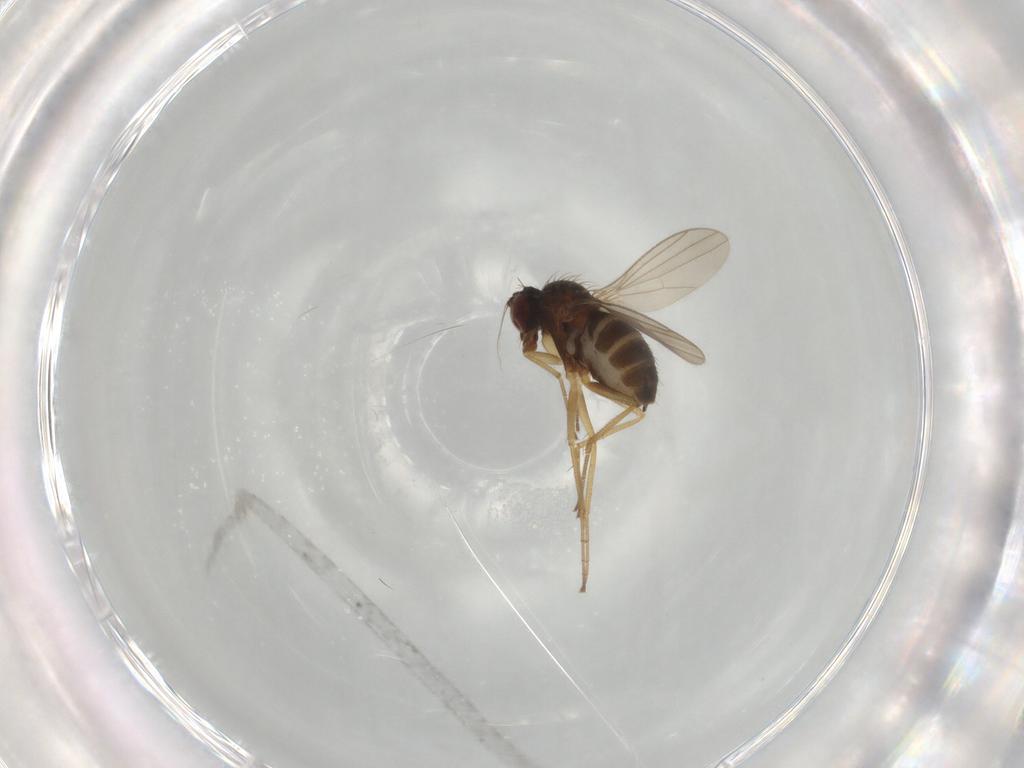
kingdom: Animalia
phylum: Arthropoda
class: Insecta
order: Diptera
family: Dolichopodidae
